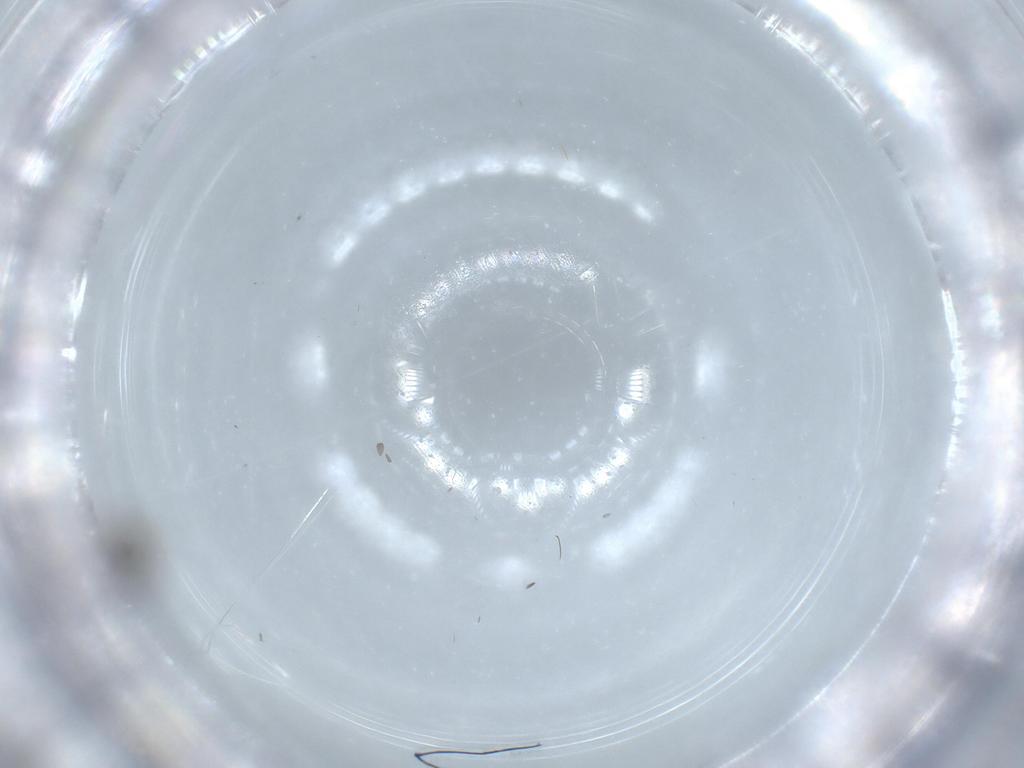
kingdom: Animalia
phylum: Arthropoda
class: Insecta
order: Diptera
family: Phoridae
